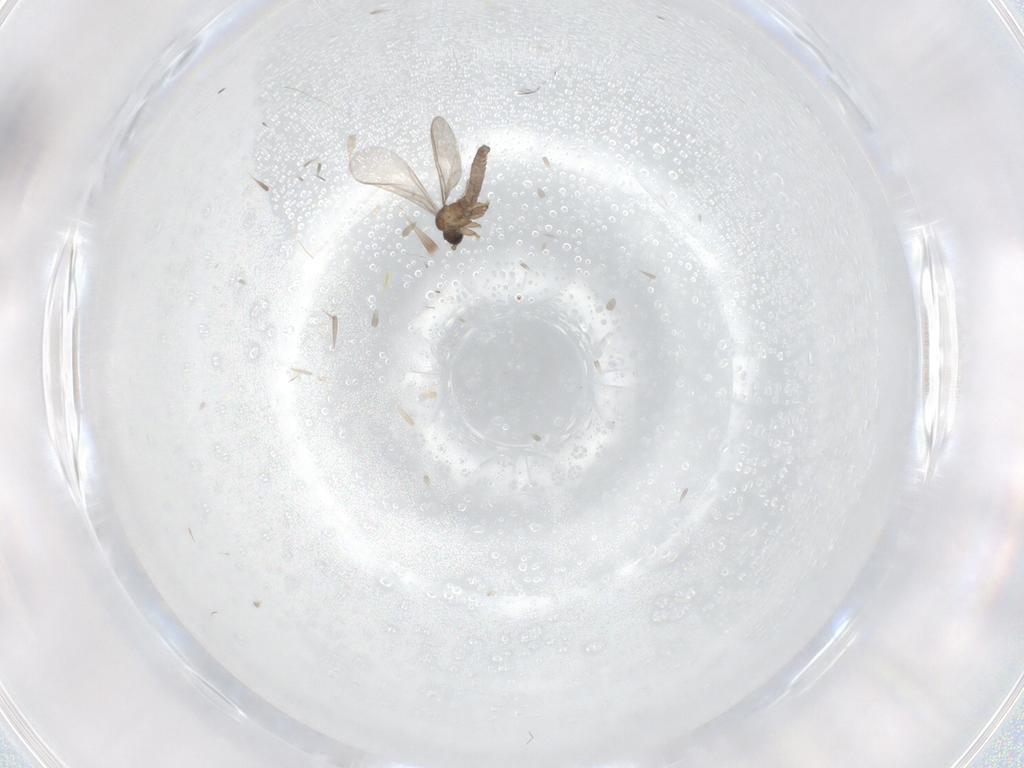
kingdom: Animalia
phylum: Arthropoda
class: Insecta
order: Diptera
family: Sciaridae
